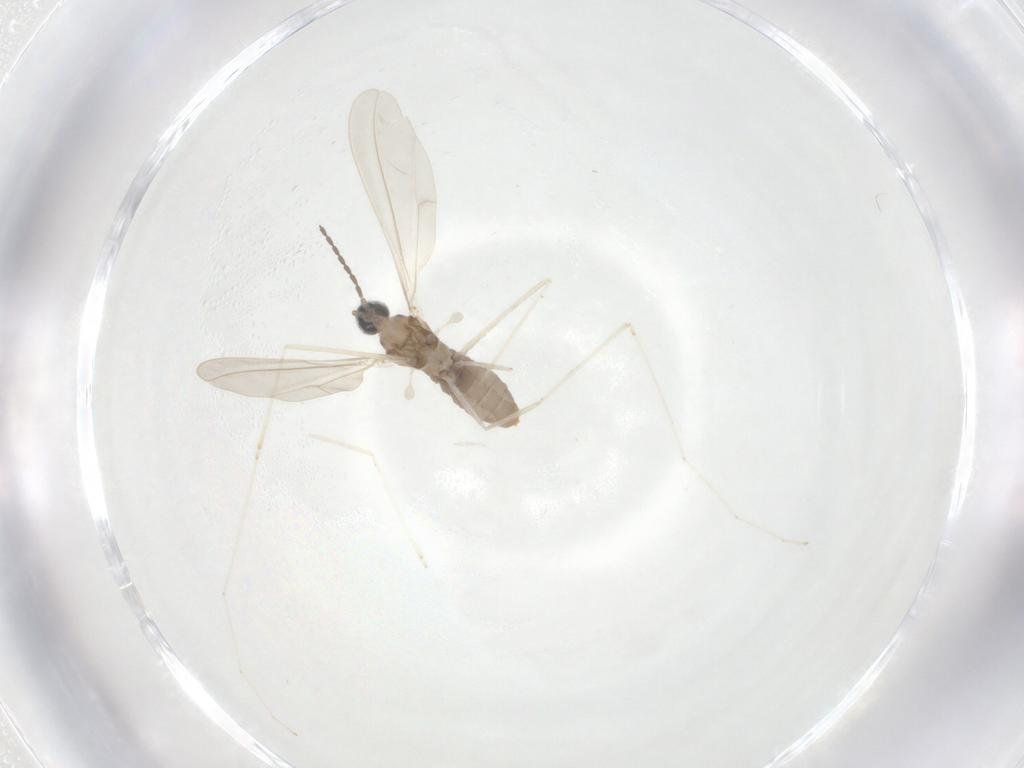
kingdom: Animalia
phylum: Arthropoda
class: Insecta
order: Diptera
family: Cecidomyiidae
